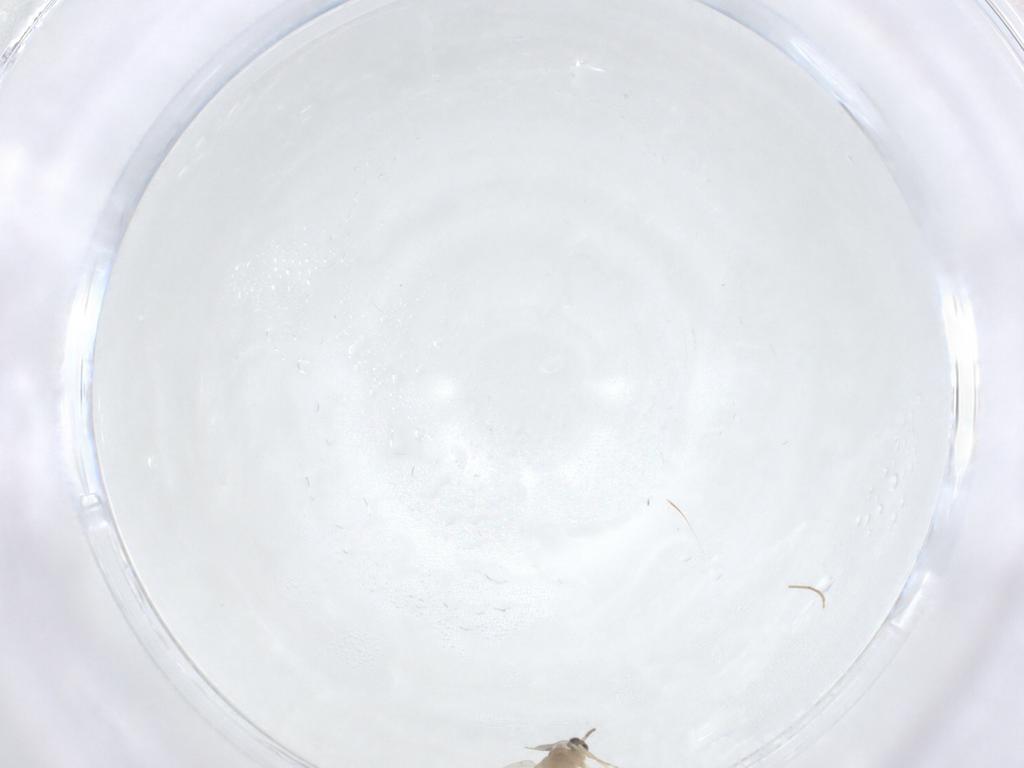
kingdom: Animalia
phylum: Arthropoda
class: Insecta
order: Diptera
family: Cecidomyiidae
